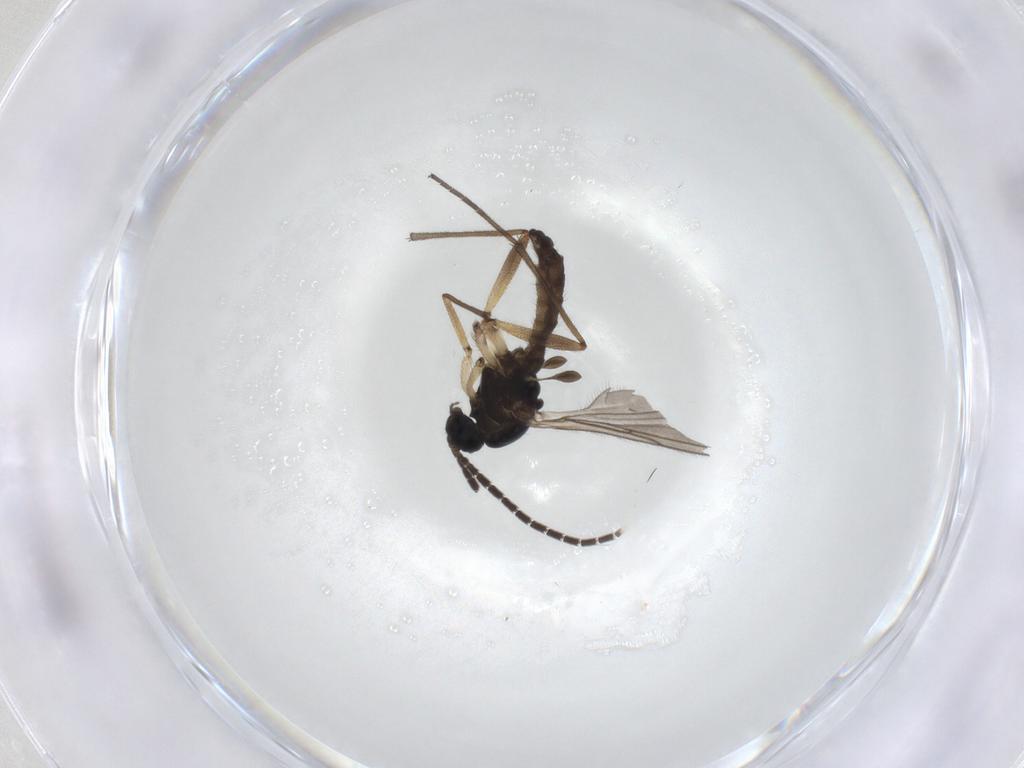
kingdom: Animalia
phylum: Arthropoda
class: Insecta
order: Diptera
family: Sciaridae
